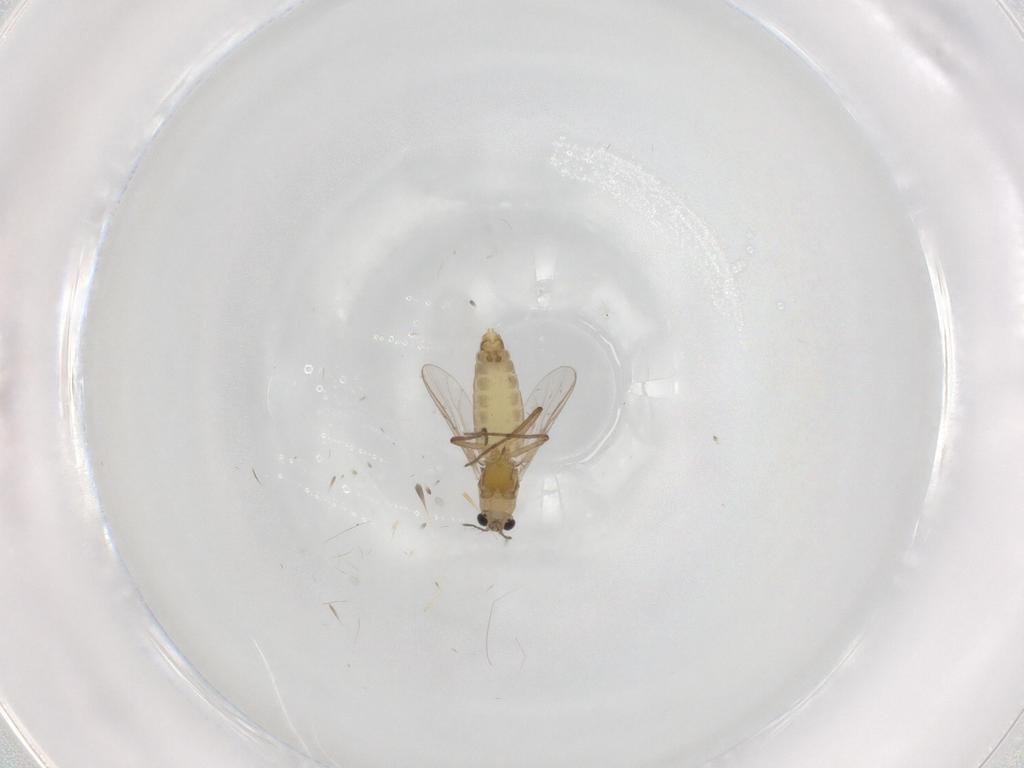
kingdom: Animalia
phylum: Arthropoda
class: Insecta
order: Diptera
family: Chironomidae
